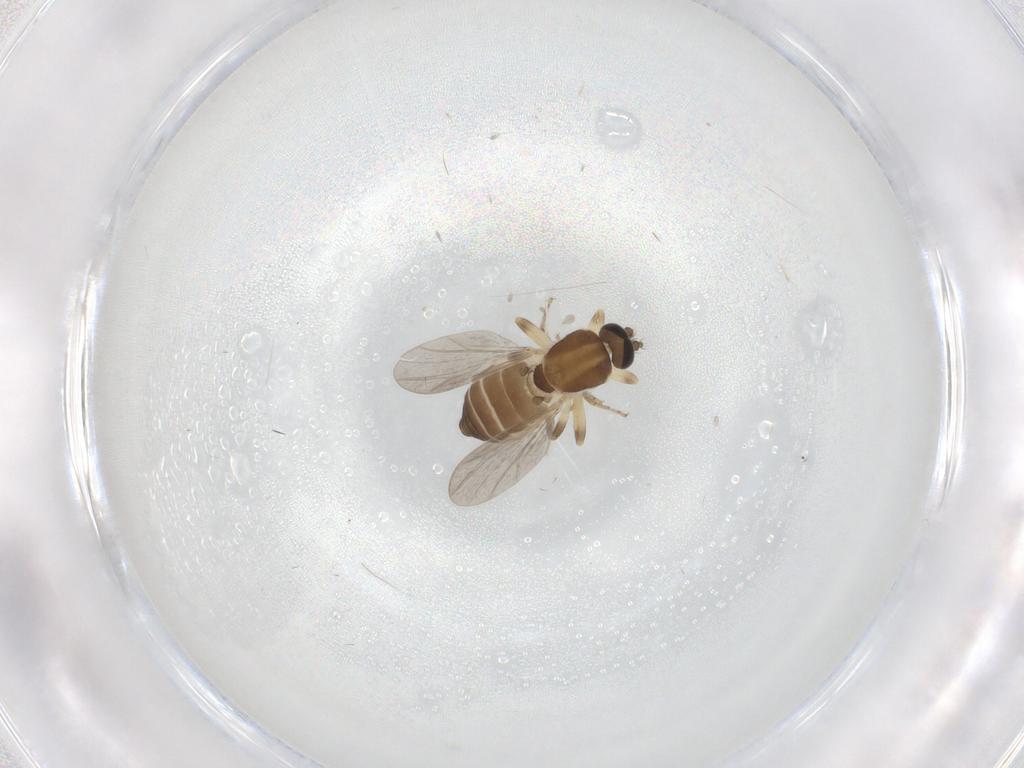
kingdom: Animalia
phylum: Arthropoda
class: Insecta
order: Diptera
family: Ceratopogonidae
